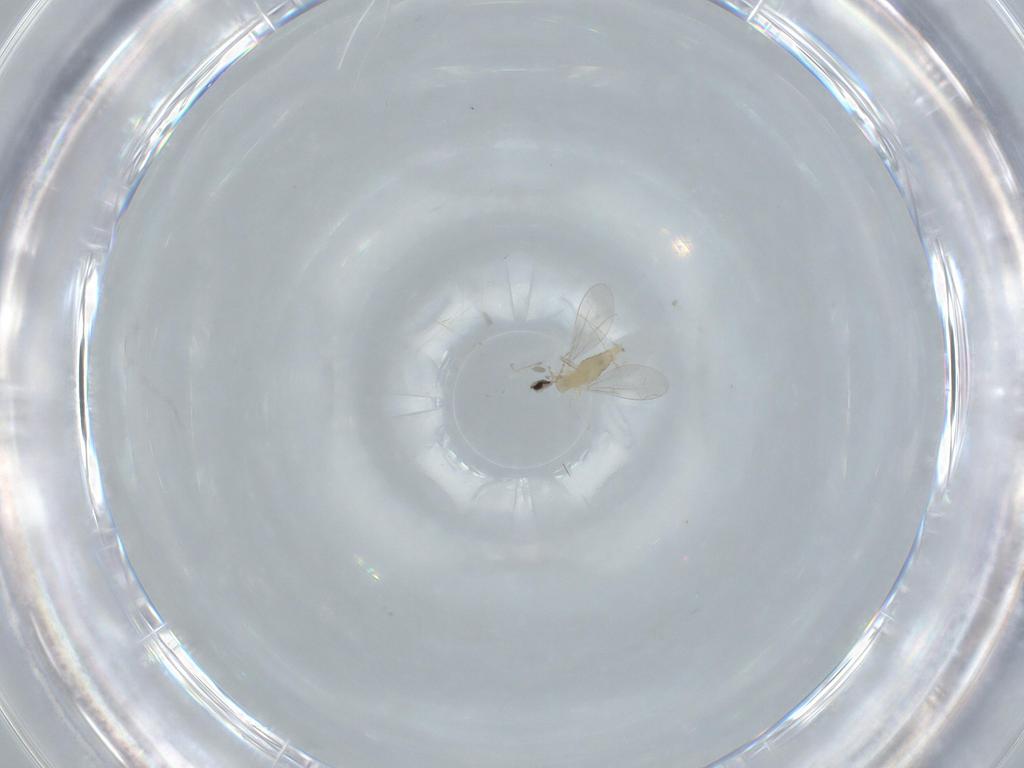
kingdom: Animalia
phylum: Arthropoda
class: Insecta
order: Diptera
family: Cecidomyiidae
